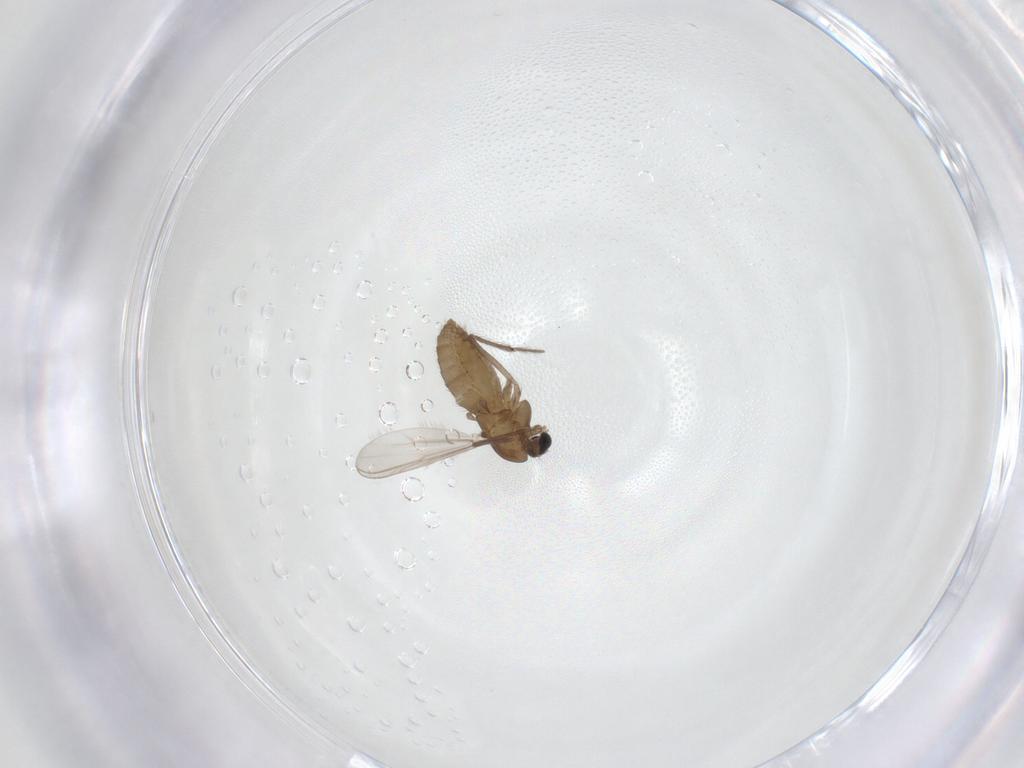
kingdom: Animalia
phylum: Arthropoda
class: Insecta
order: Diptera
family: Chironomidae
